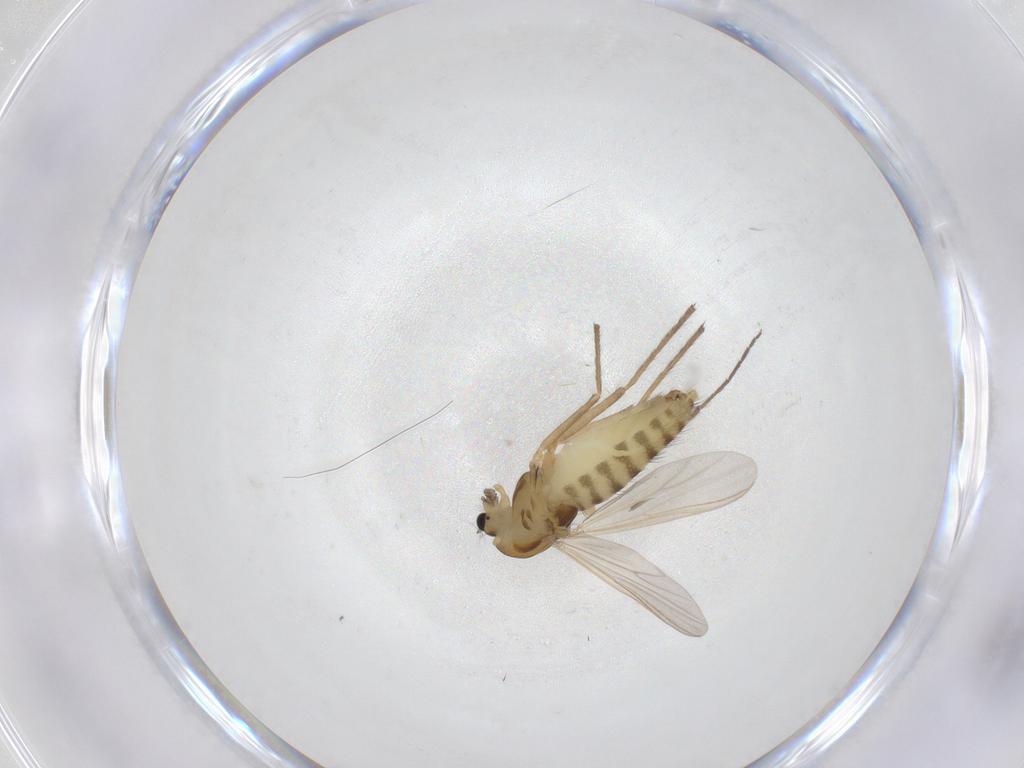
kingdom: Animalia
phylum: Arthropoda
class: Insecta
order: Diptera
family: Chironomidae
